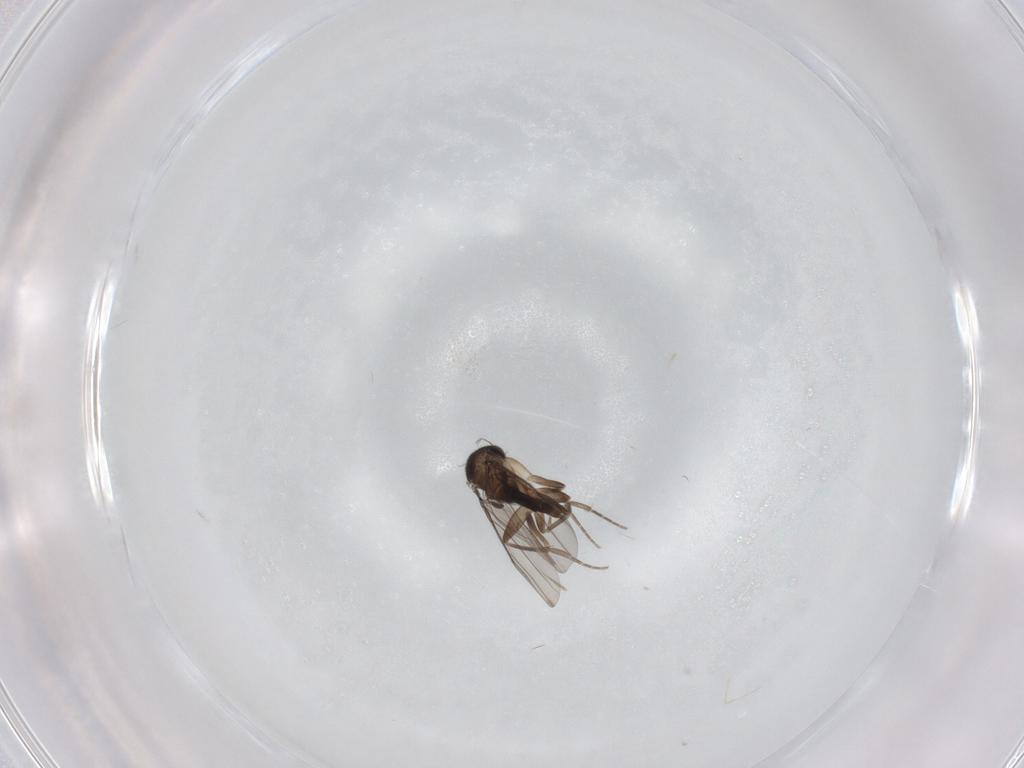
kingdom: Animalia
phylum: Arthropoda
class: Insecta
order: Diptera
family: Phoridae
